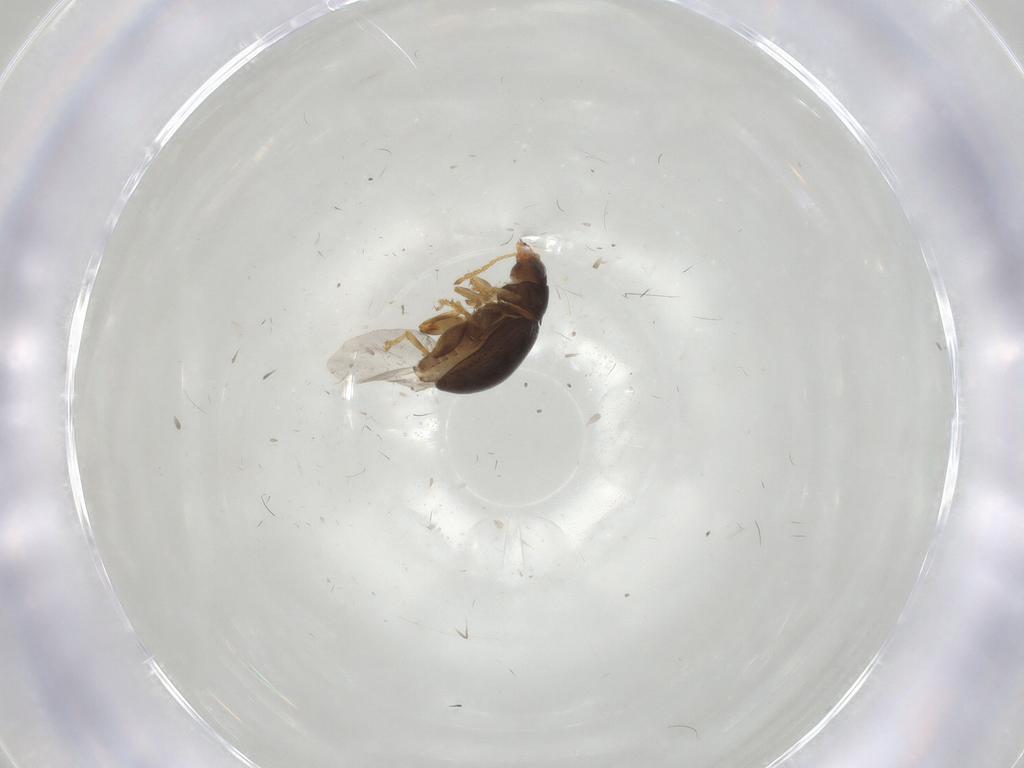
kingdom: Animalia
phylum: Arthropoda
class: Insecta
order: Coleoptera
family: Chrysomelidae
